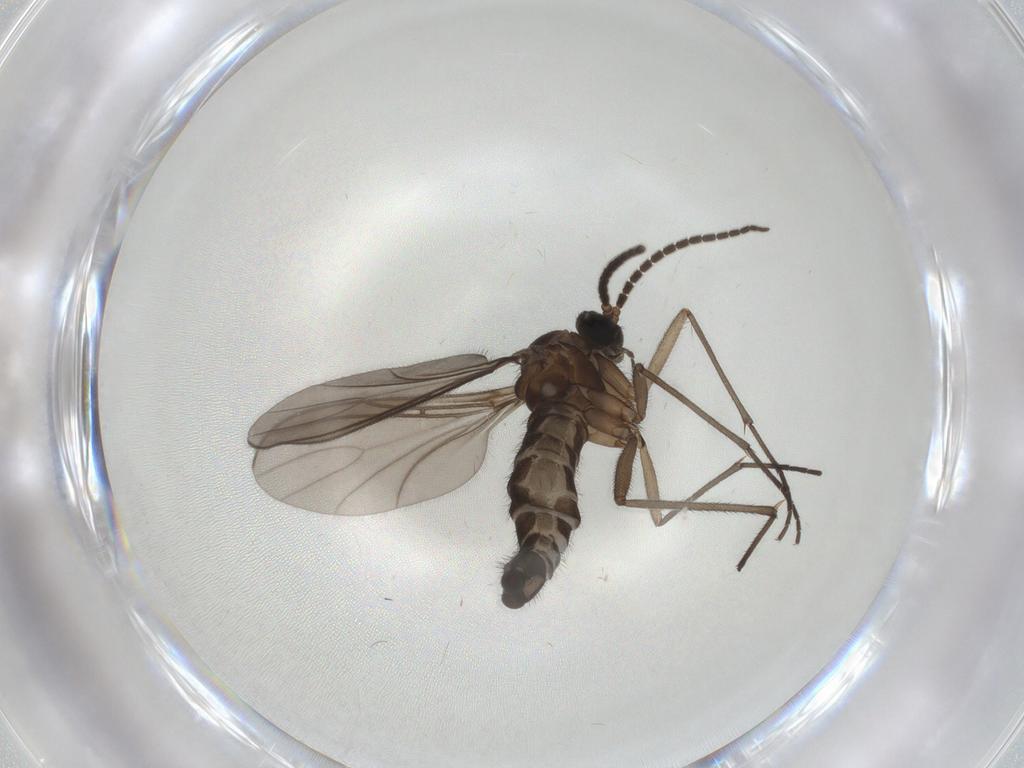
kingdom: Animalia
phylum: Arthropoda
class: Insecta
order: Diptera
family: Sciaridae
